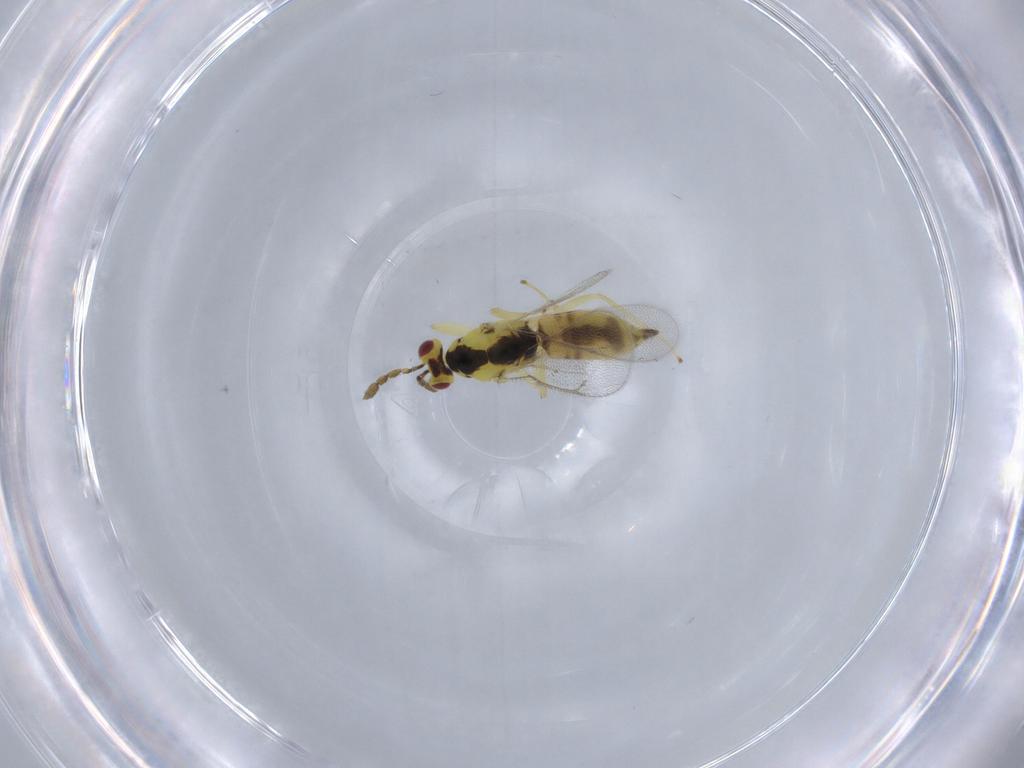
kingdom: Animalia
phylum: Arthropoda
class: Insecta
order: Hymenoptera
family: Eulophidae
